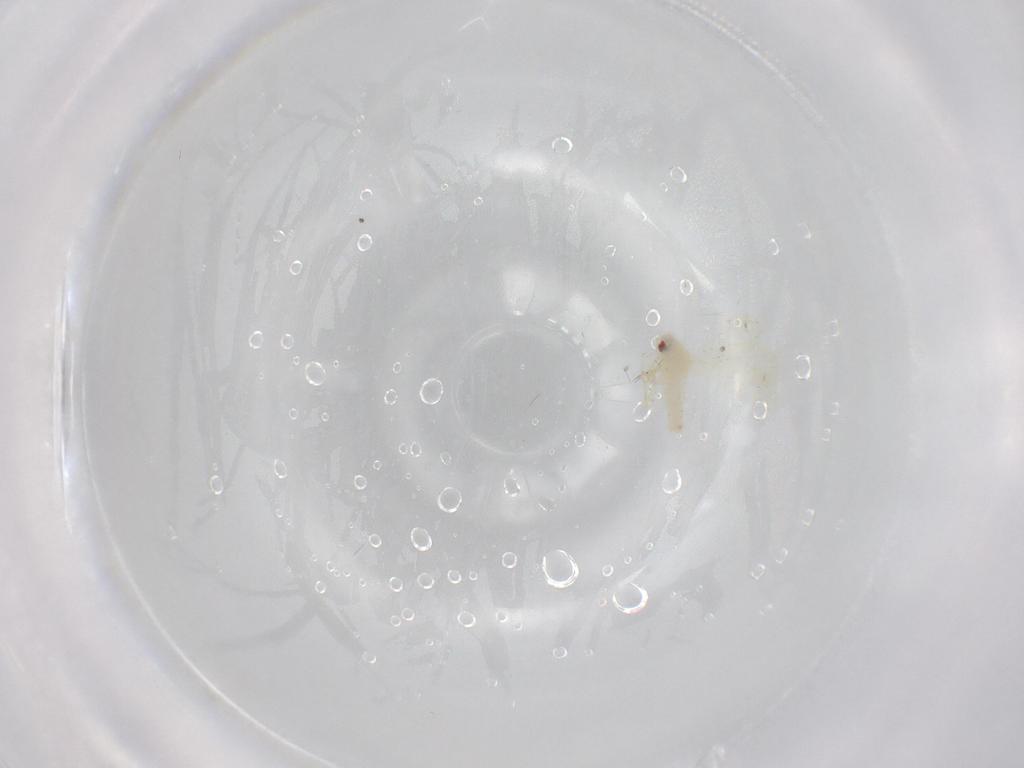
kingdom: Animalia
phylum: Arthropoda
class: Insecta
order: Hemiptera
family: Aleyrodidae
